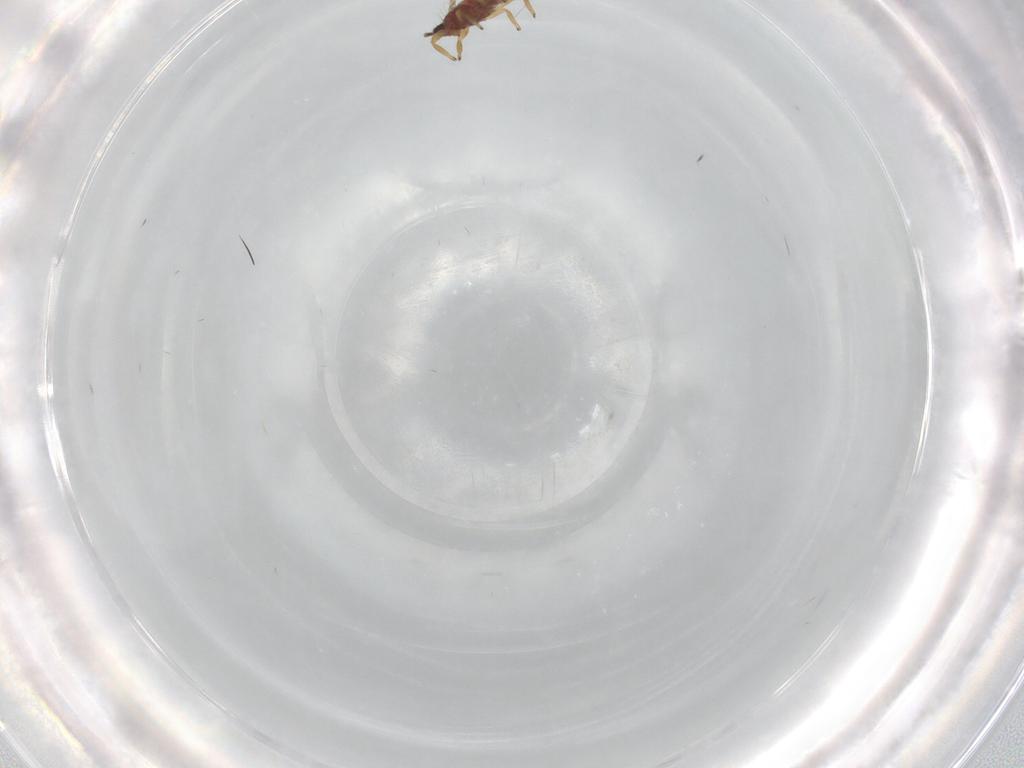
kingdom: Animalia
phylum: Arthropoda
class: Insecta
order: Thysanoptera
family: Phlaeothripidae
